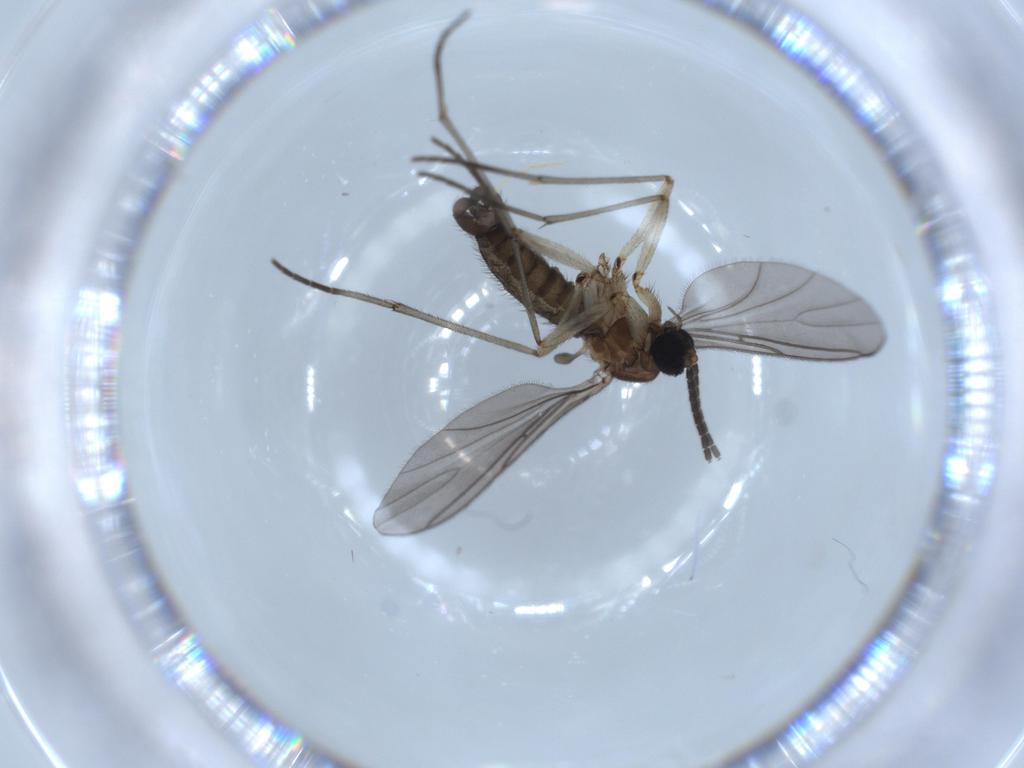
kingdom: Animalia
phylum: Arthropoda
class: Insecta
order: Diptera
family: Sciaridae
